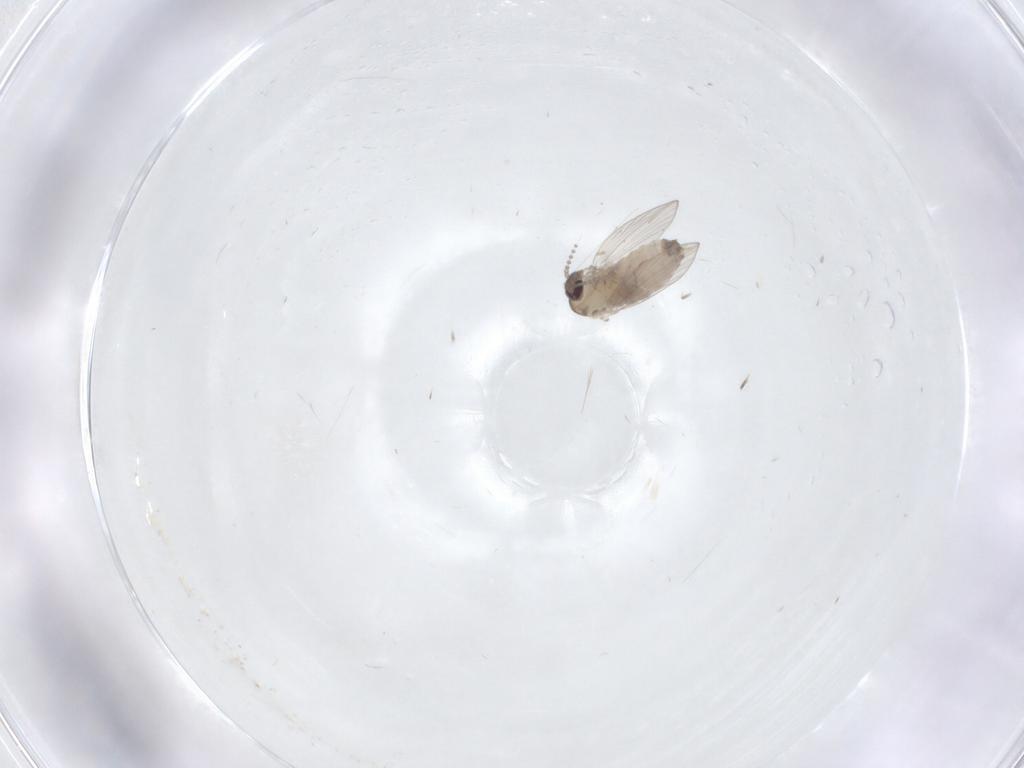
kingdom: Animalia
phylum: Arthropoda
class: Insecta
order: Diptera
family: Psychodidae
